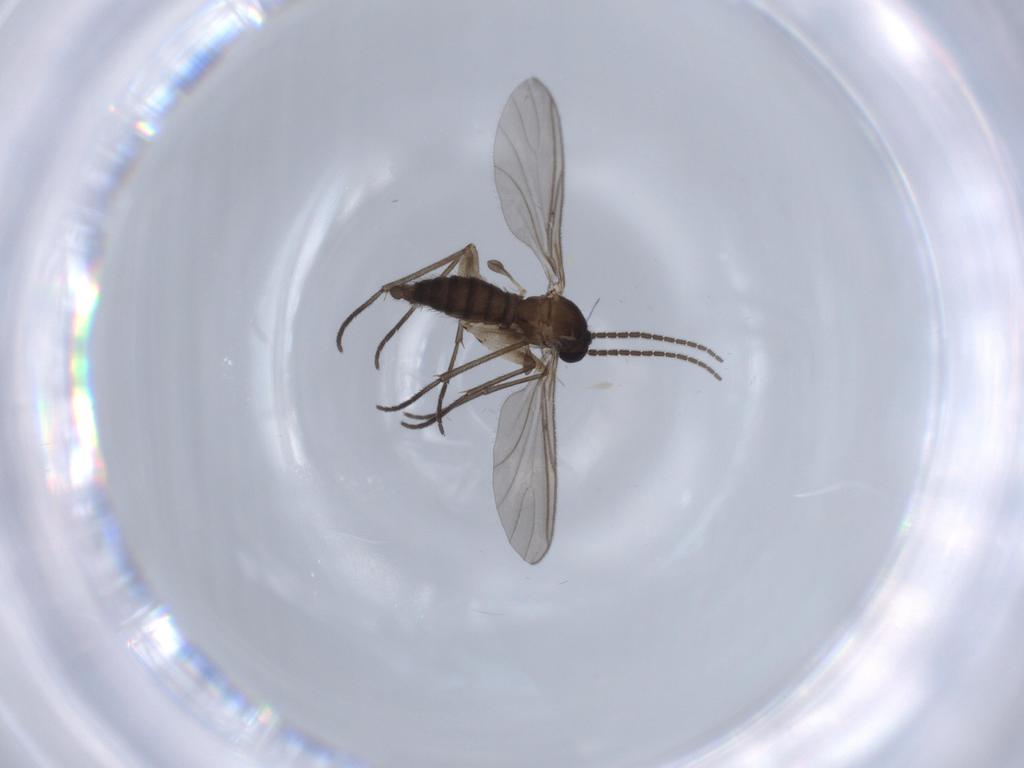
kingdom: Animalia
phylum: Arthropoda
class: Insecta
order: Diptera
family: Sciaridae
